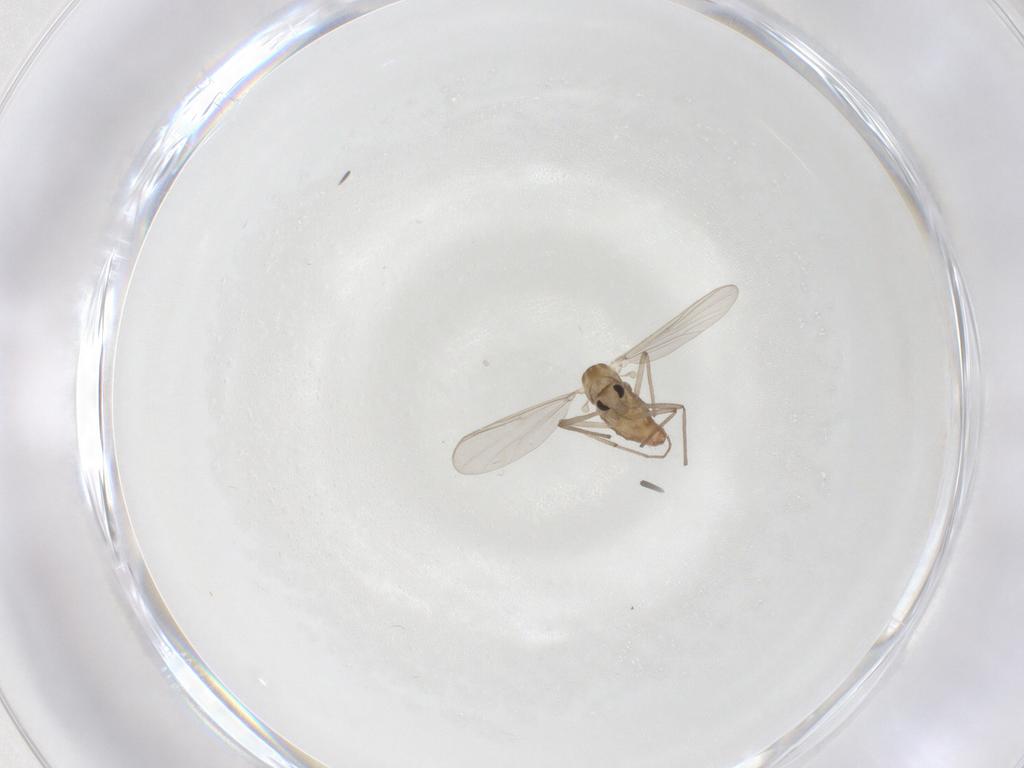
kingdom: Animalia
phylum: Arthropoda
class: Insecta
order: Diptera
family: Chironomidae
